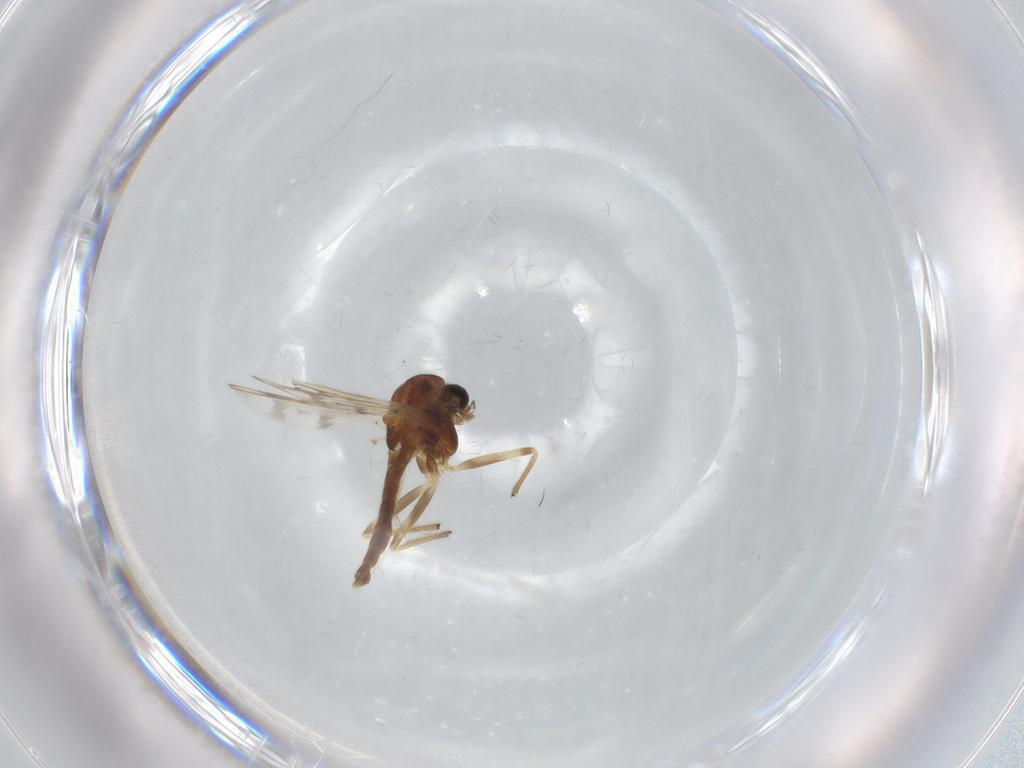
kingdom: Animalia
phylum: Arthropoda
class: Insecta
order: Diptera
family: Chironomidae
